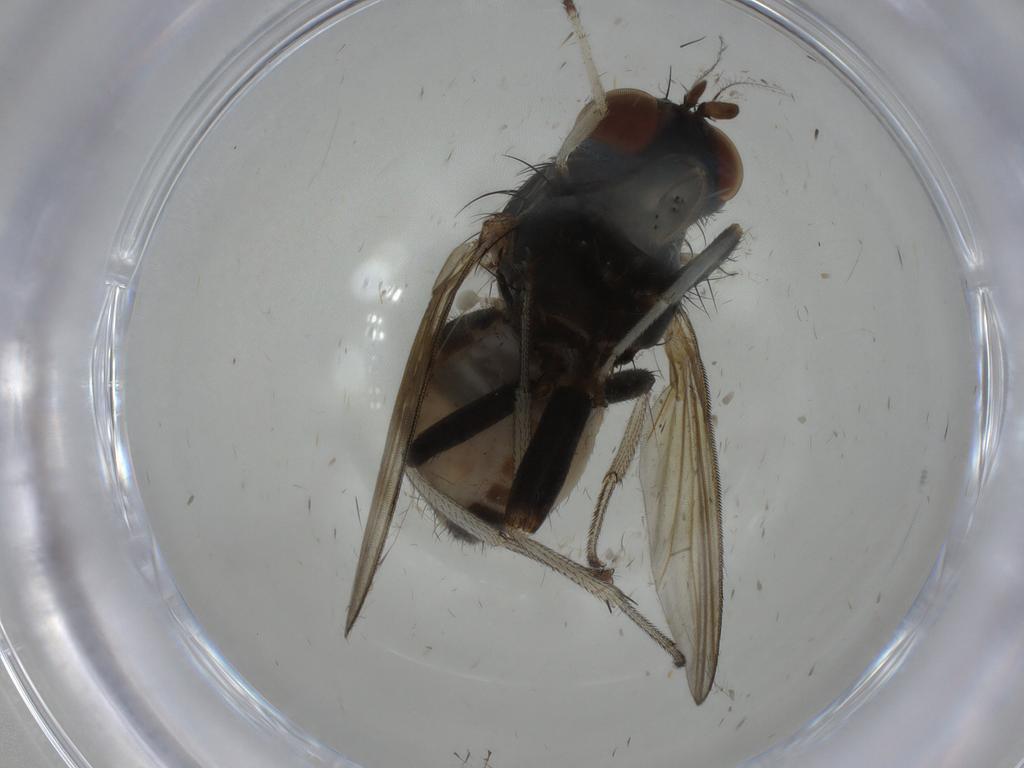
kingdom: Animalia
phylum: Arthropoda
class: Insecta
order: Diptera
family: Lauxaniidae
